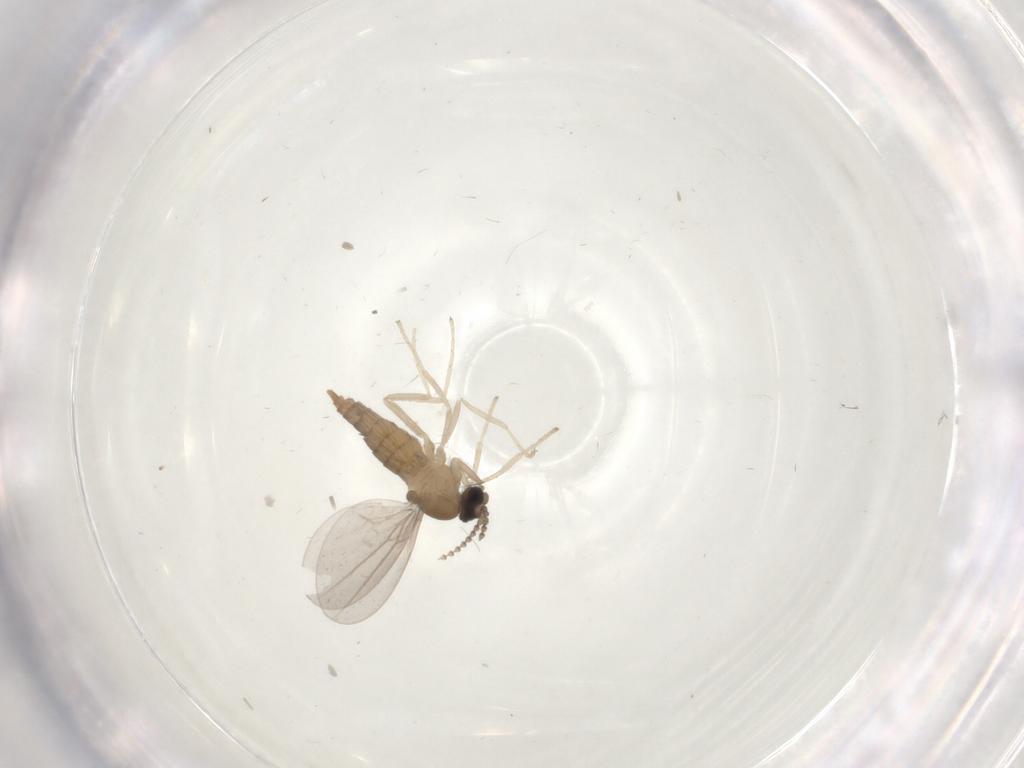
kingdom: Animalia
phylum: Arthropoda
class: Insecta
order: Diptera
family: Cecidomyiidae
